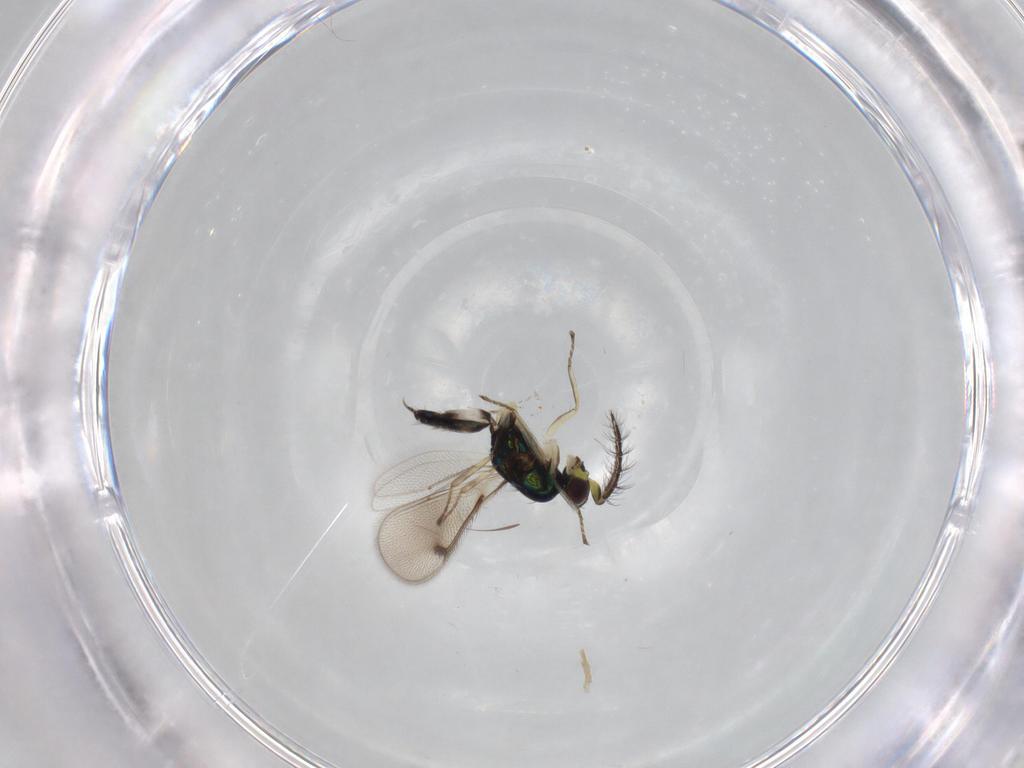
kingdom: Animalia
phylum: Arthropoda
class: Insecta
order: Hymenoptera
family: Eulophidae
